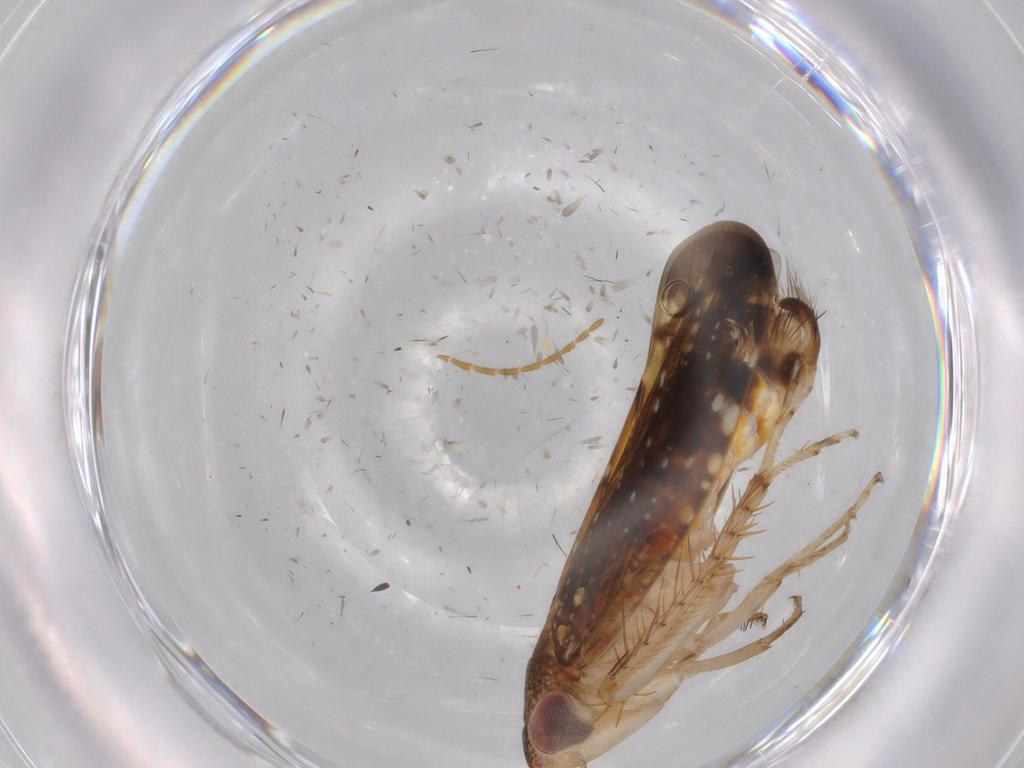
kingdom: Animalia
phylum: Arthropoda
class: Insecta
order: Hemiptera
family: Cicadellidae
